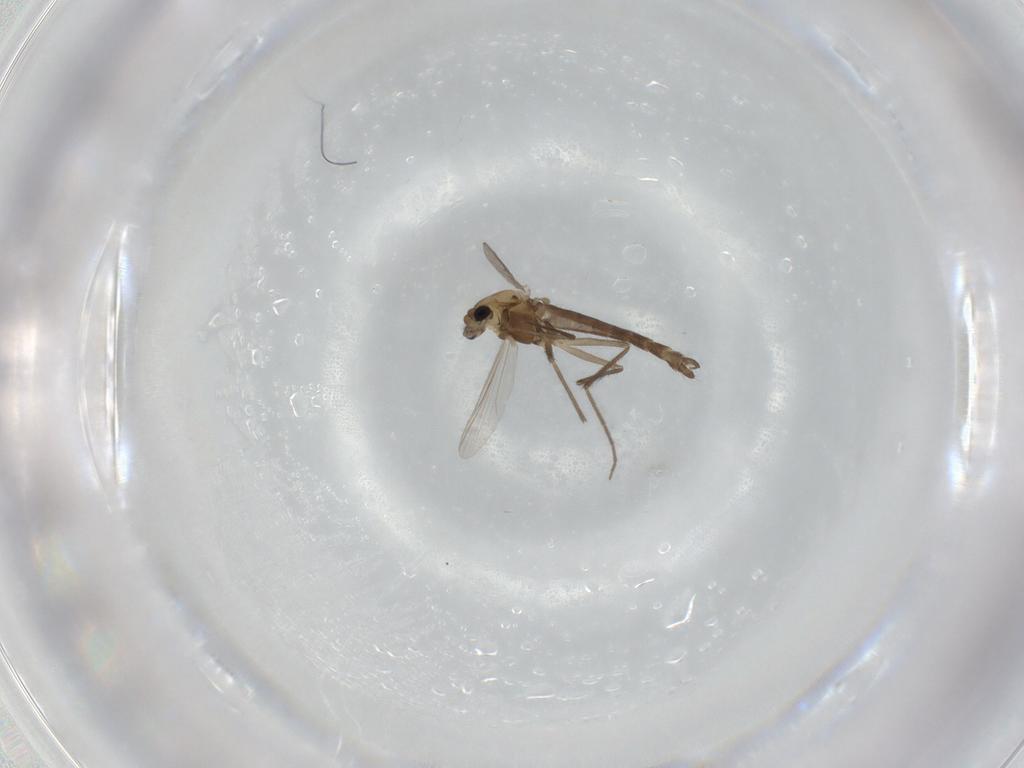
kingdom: Animalia
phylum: Arthropoda
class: Insecta
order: Diptera
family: Chironomidae
